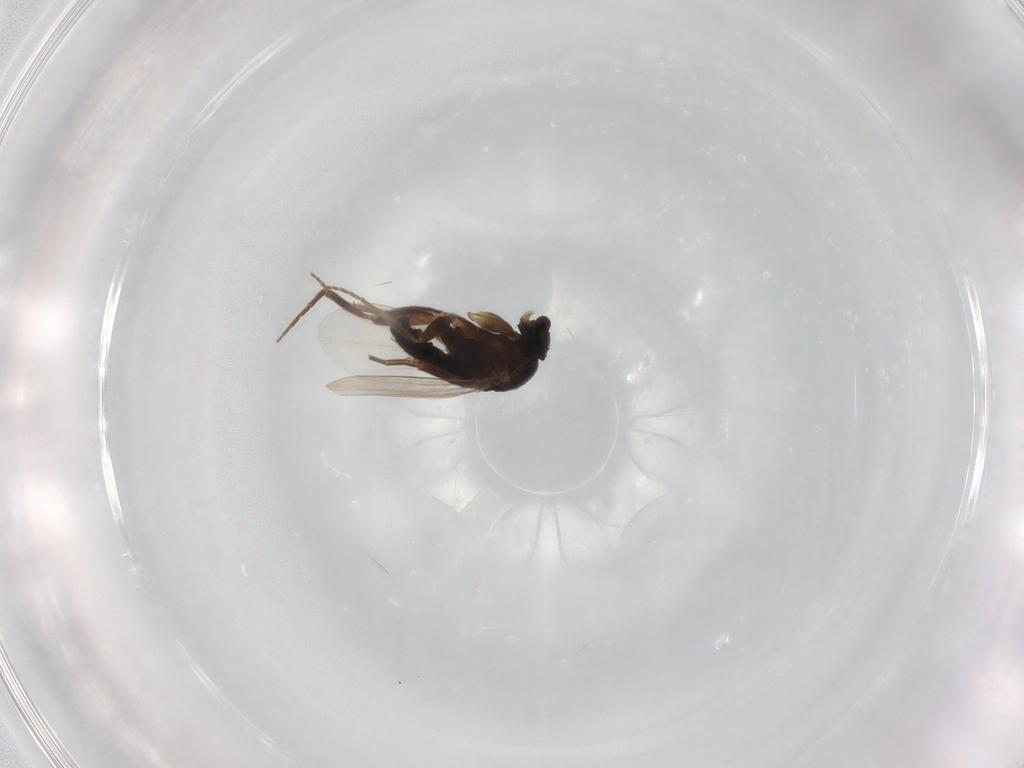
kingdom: Animalia
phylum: Arthropoda
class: Insecta
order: Diptera
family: Phoridae
